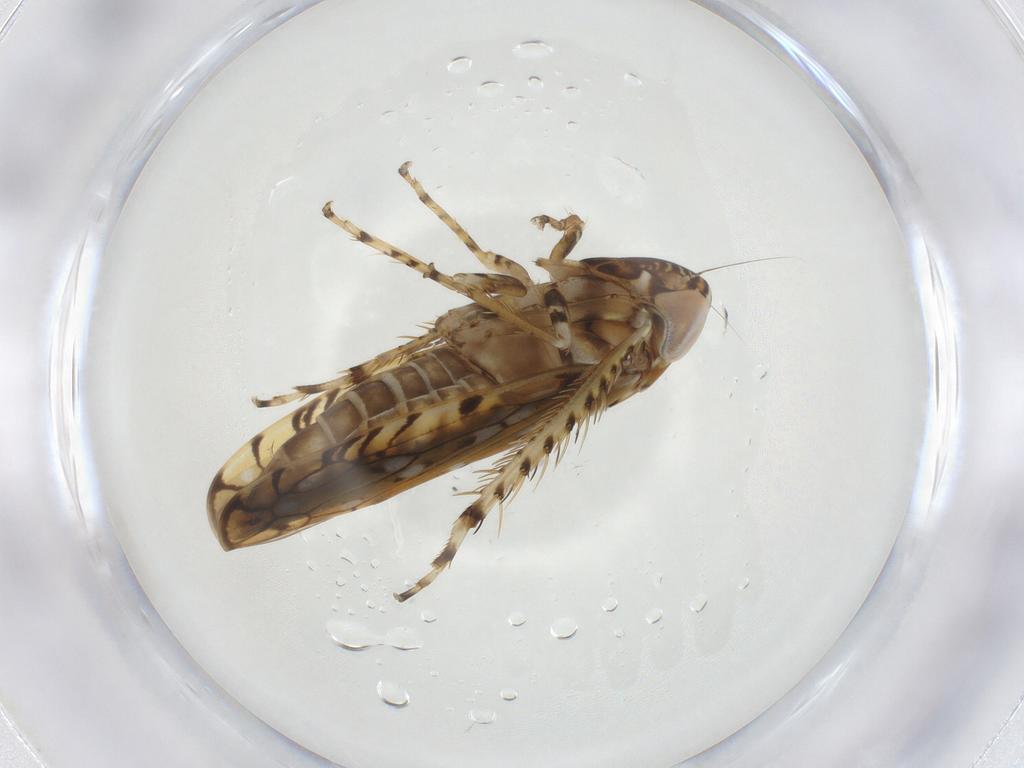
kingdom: Animalia
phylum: Arthropoda
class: Insecta
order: Hemiptera
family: Cicadellidae
